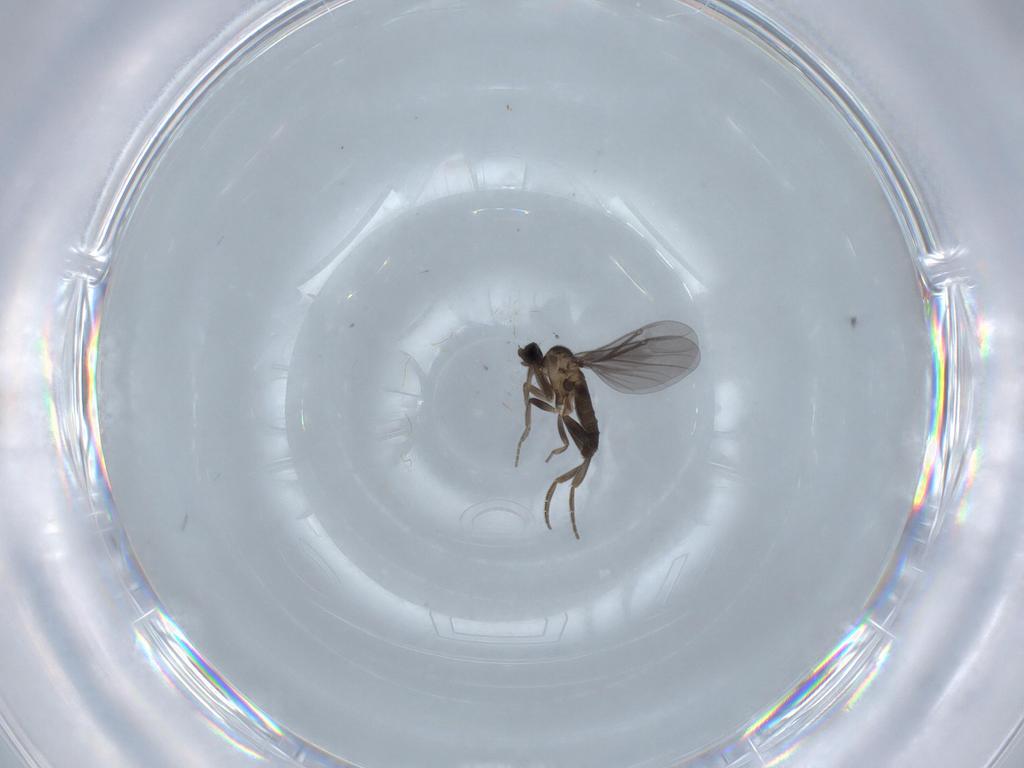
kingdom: Animalia
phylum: Arthropoda
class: Insecta
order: Diptera
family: Phoridae
